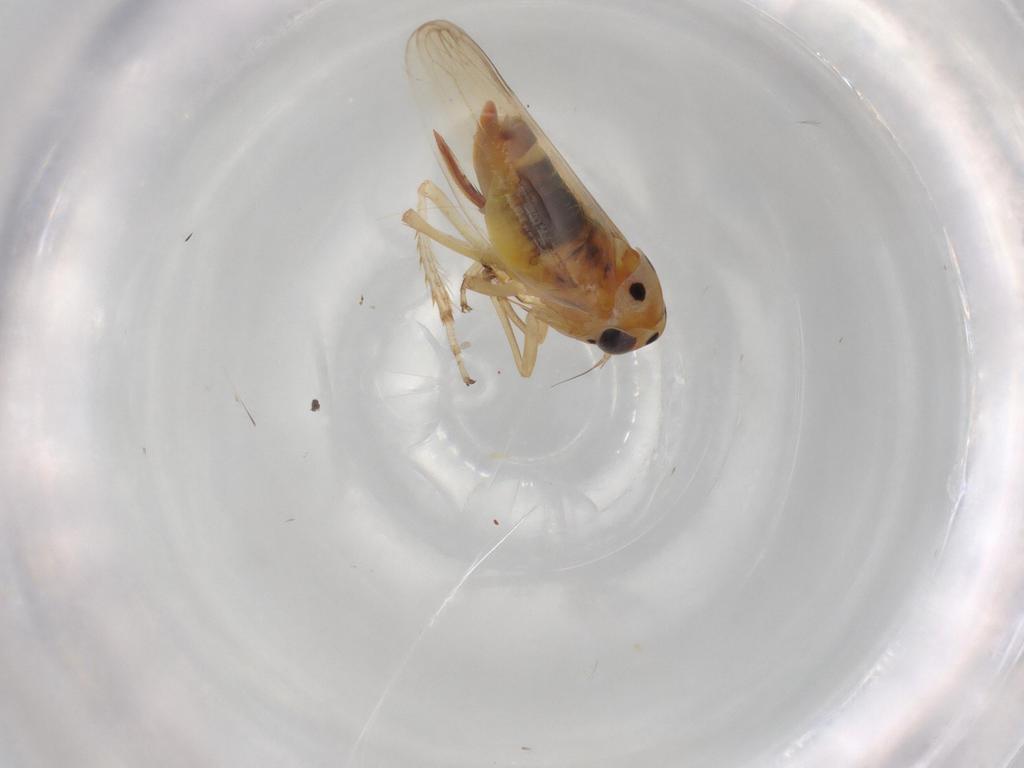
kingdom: Animalia
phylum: Arthropoda
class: Insecta
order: Hemiptera
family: Cicadellidae
